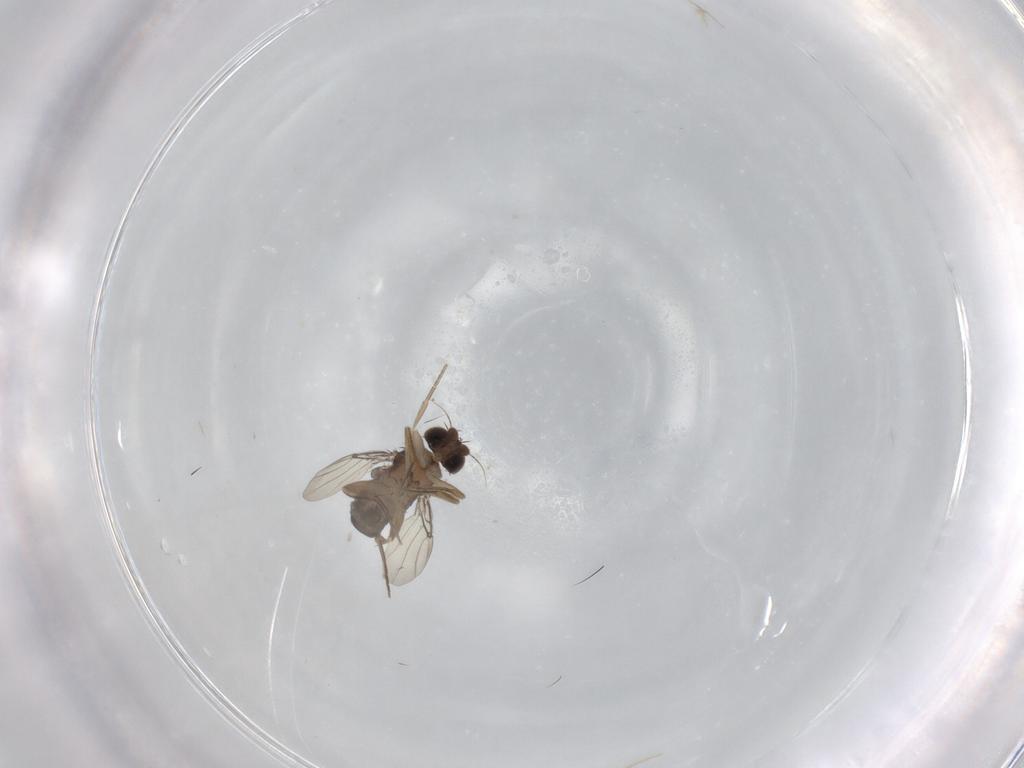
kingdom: Animalia
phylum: Arthropoda
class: Insecta
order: Diptera
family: Phoridae
